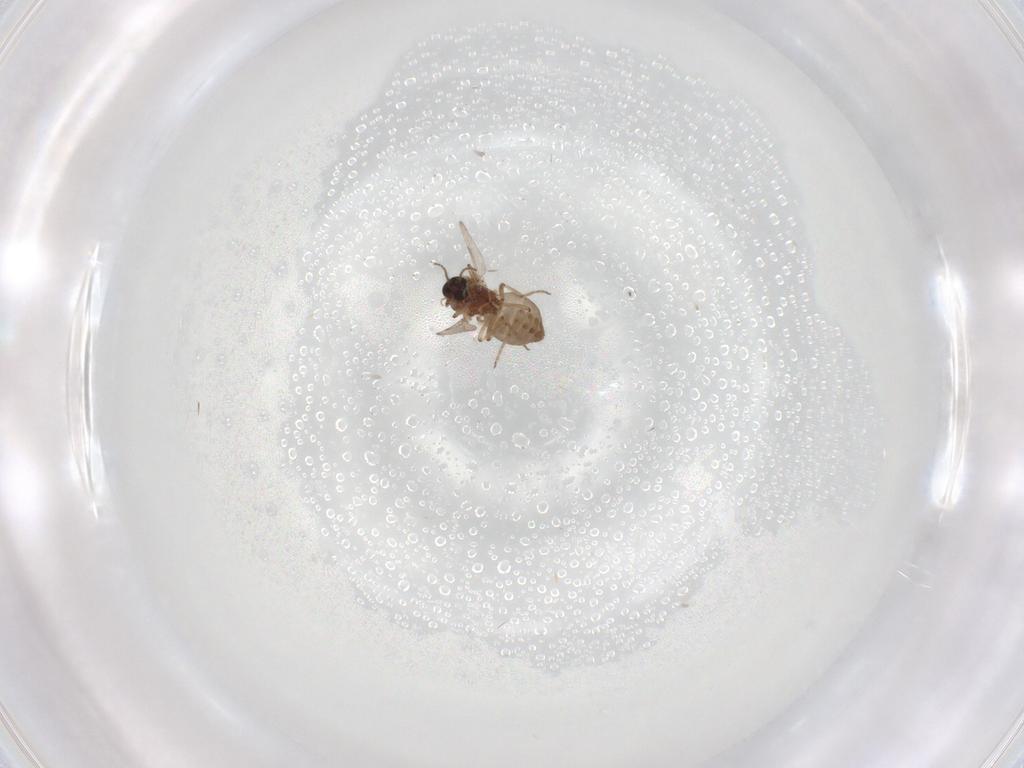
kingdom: Animalia
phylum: Arthropoda
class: Insecta
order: Diptera
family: Ceratopogonidae
